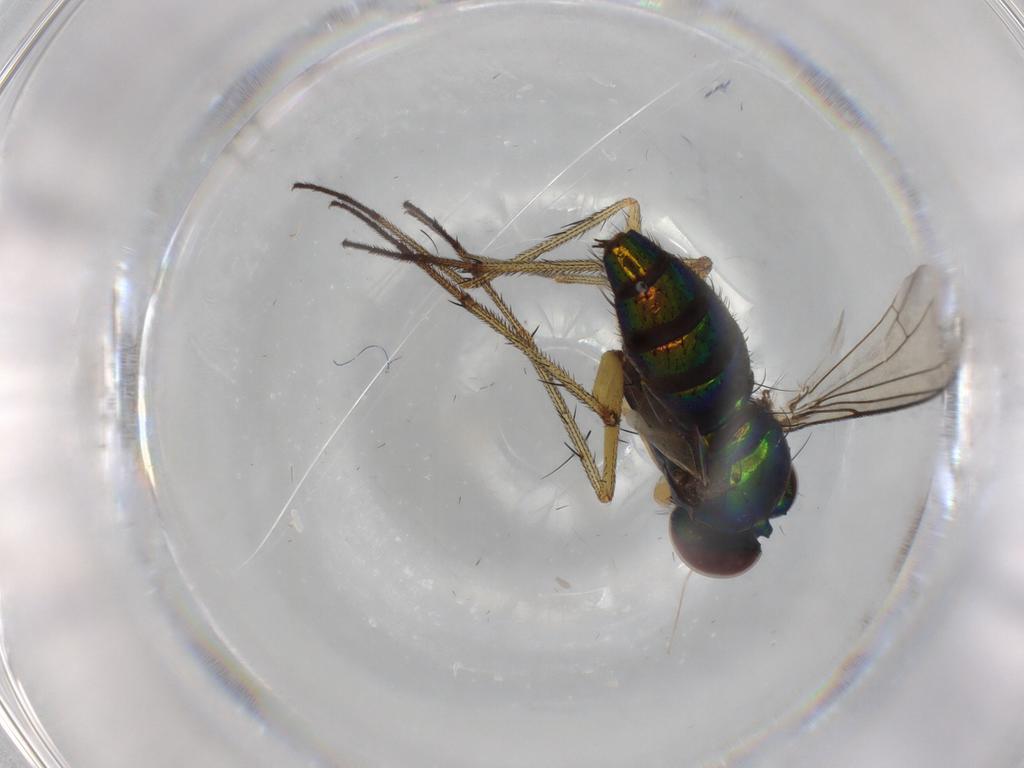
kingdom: Animalia
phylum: Arthropoda
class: Insecta
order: Diptera
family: Dolichopodidae
